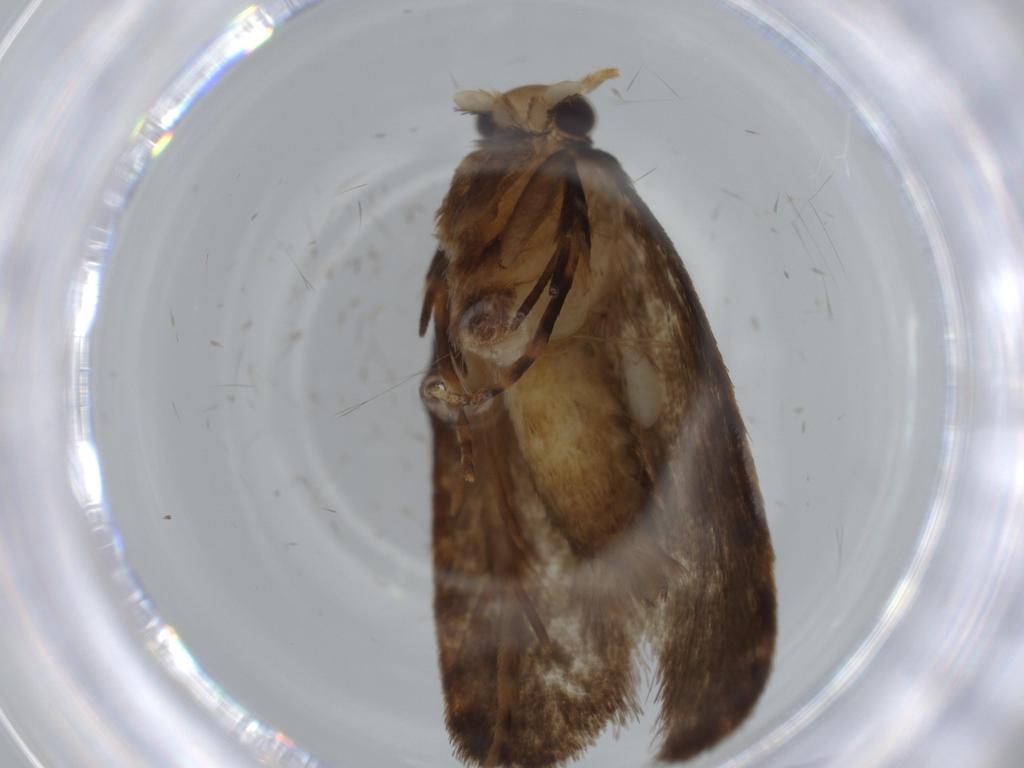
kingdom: Animalia
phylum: Arthropoda
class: Insecta
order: Lepidoptera
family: Tineidae
